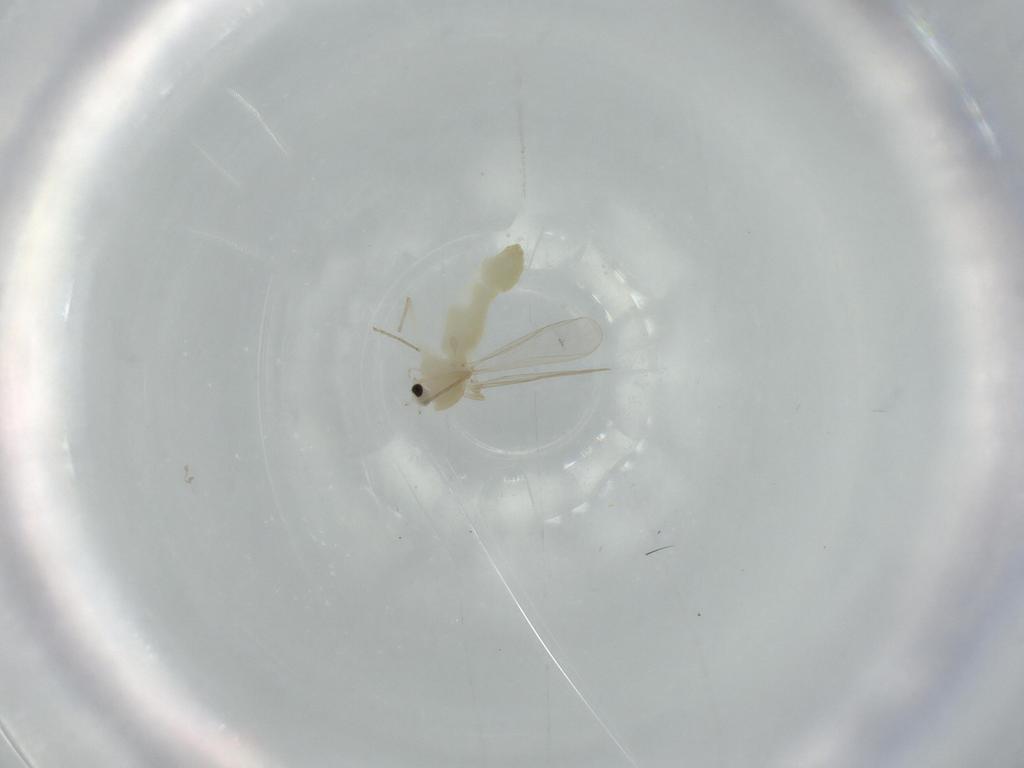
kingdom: Animalia
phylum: Arthropoda
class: Insecta
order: Diptera
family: Chironomidae
